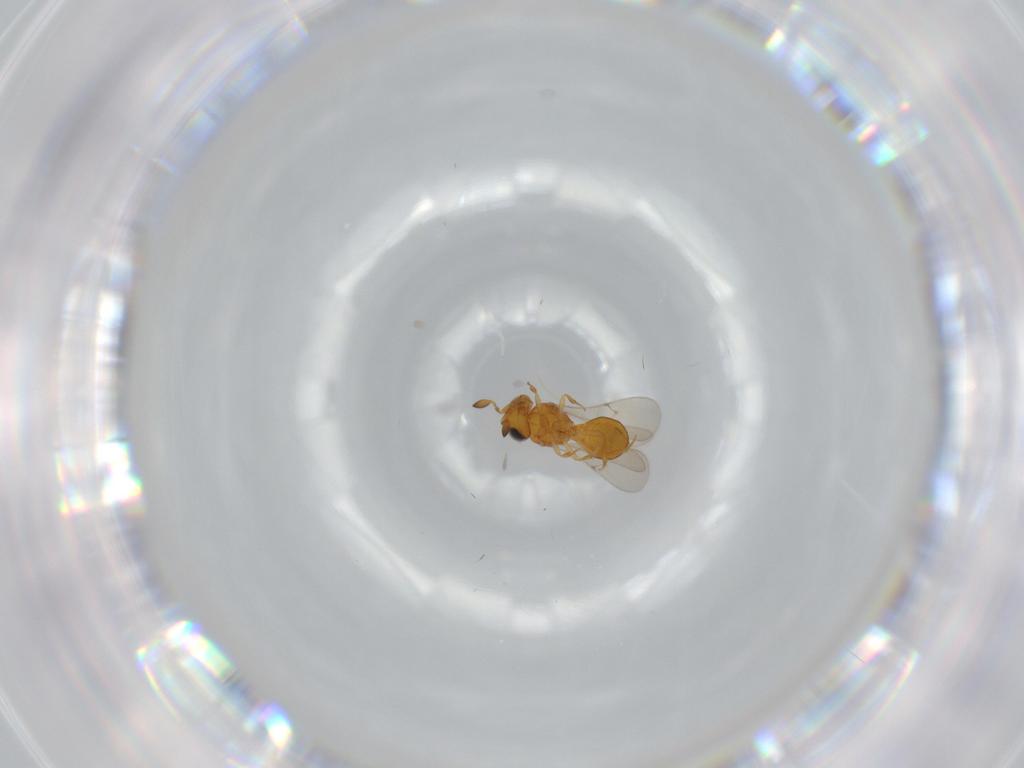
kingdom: Animalia
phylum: Arthropoda
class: Insecta
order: Hymenoptera
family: Scelionidae
